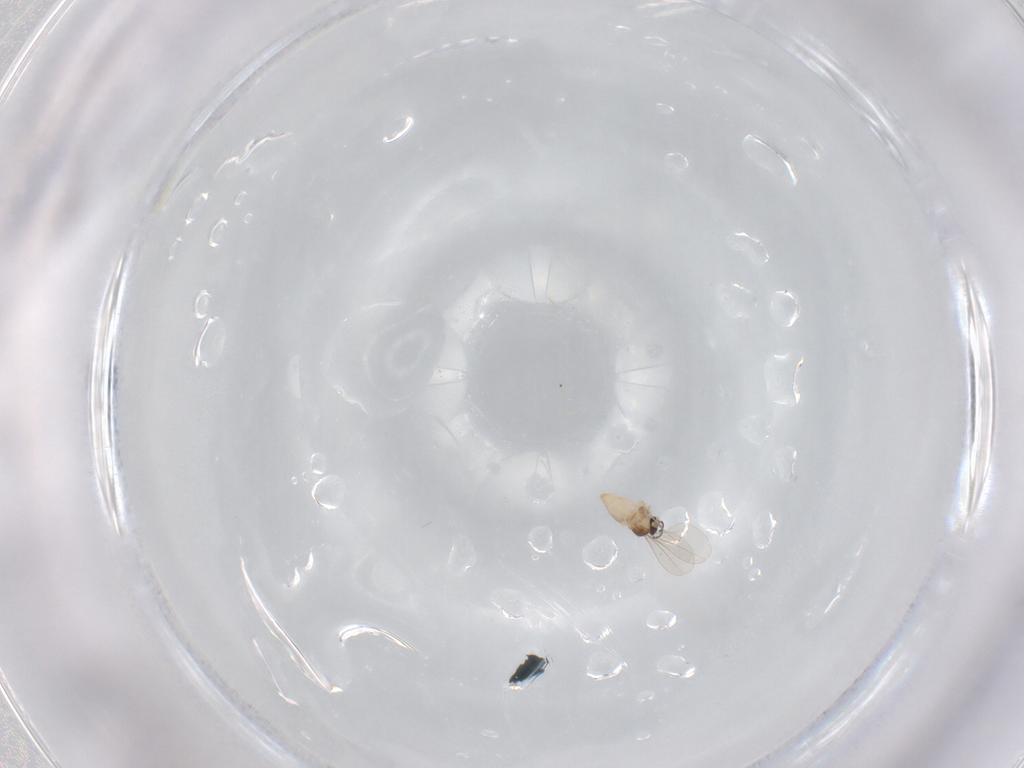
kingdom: Animalia
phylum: Arthropoda
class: Insecta
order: Diptera
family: Cecidomyiidae
